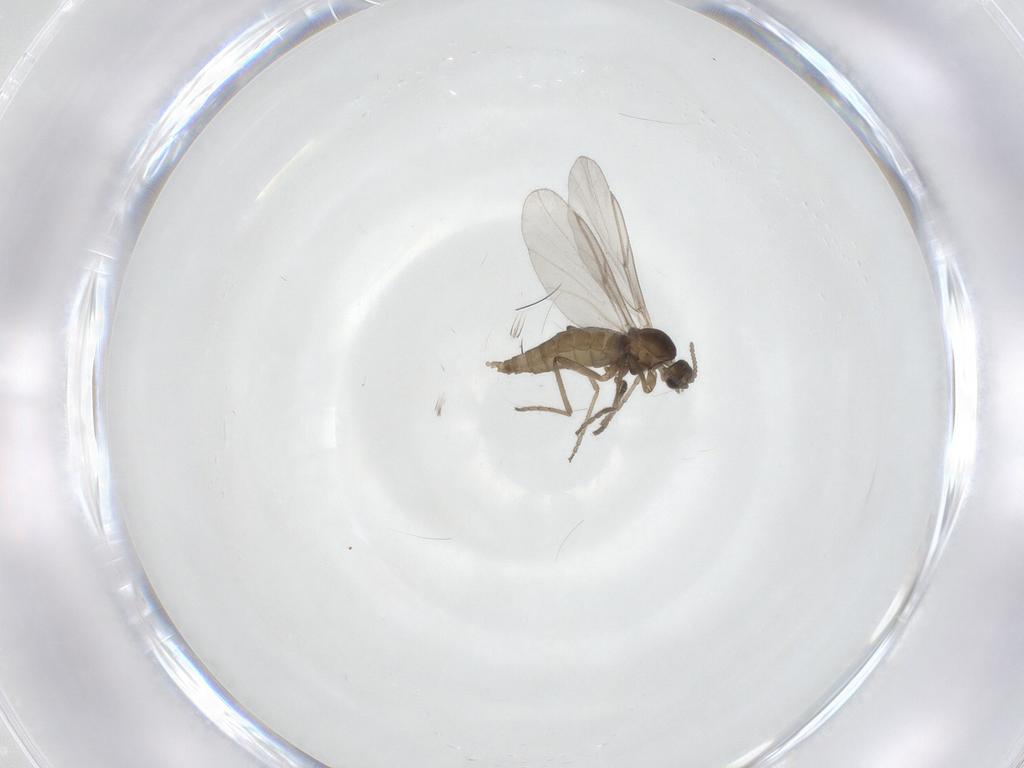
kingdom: Animalia
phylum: Arthropoda
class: Insecta
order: Diptera
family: Cecidomyiidae
